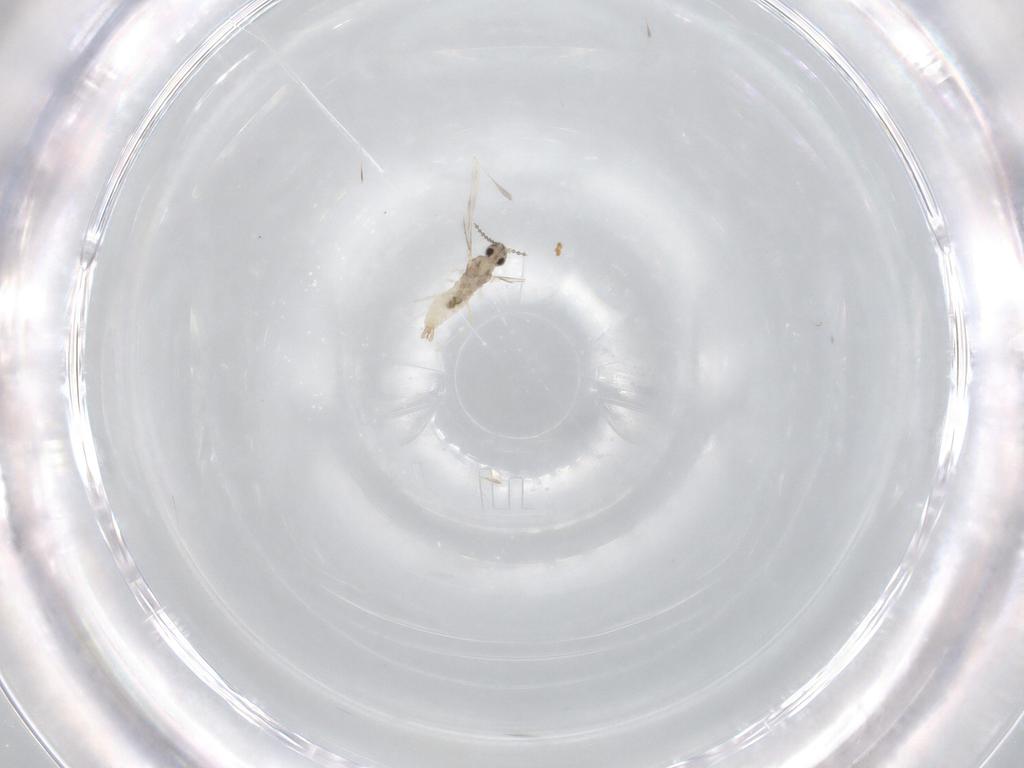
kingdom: Animalia
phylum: Arthropoda
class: Insecta
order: Diptera
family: Cecidomyiidae
